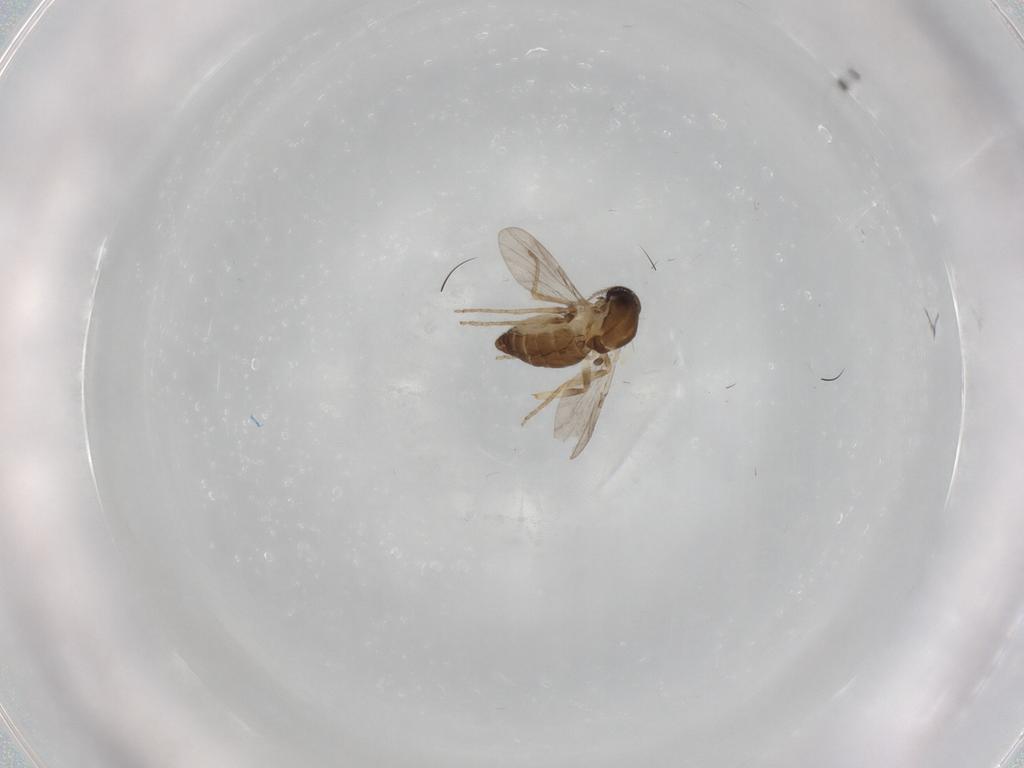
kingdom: Animalia
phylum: Arthropoda
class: Insecta
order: Diptera
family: Ceratopogonidae
